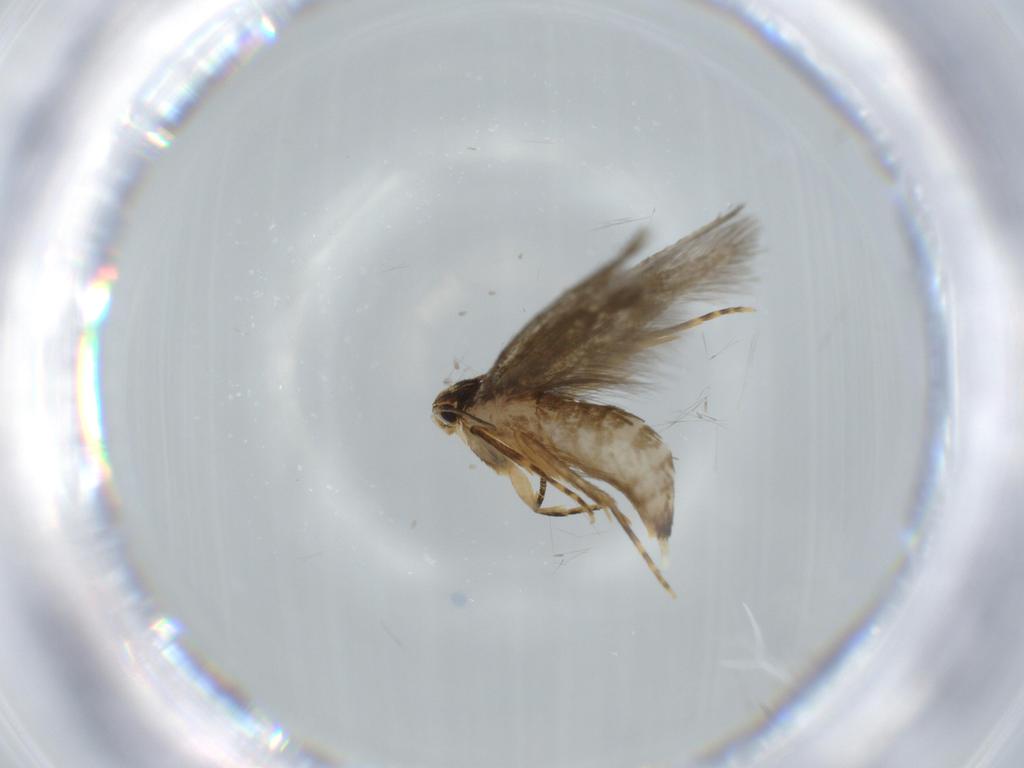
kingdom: Animalia
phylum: Arthropoda
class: Insecta
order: Lepidoptera
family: Tineidae
